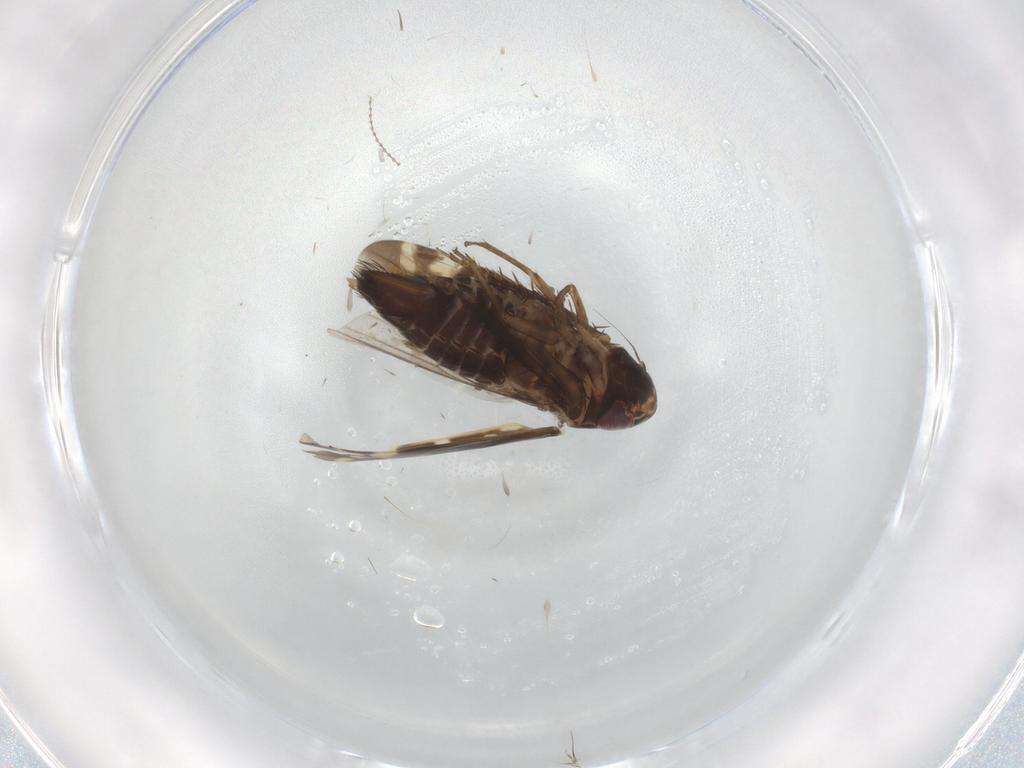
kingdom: Animalia
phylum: Arthropoda
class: Insecta
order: Hemiptera
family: Cicadellidae
